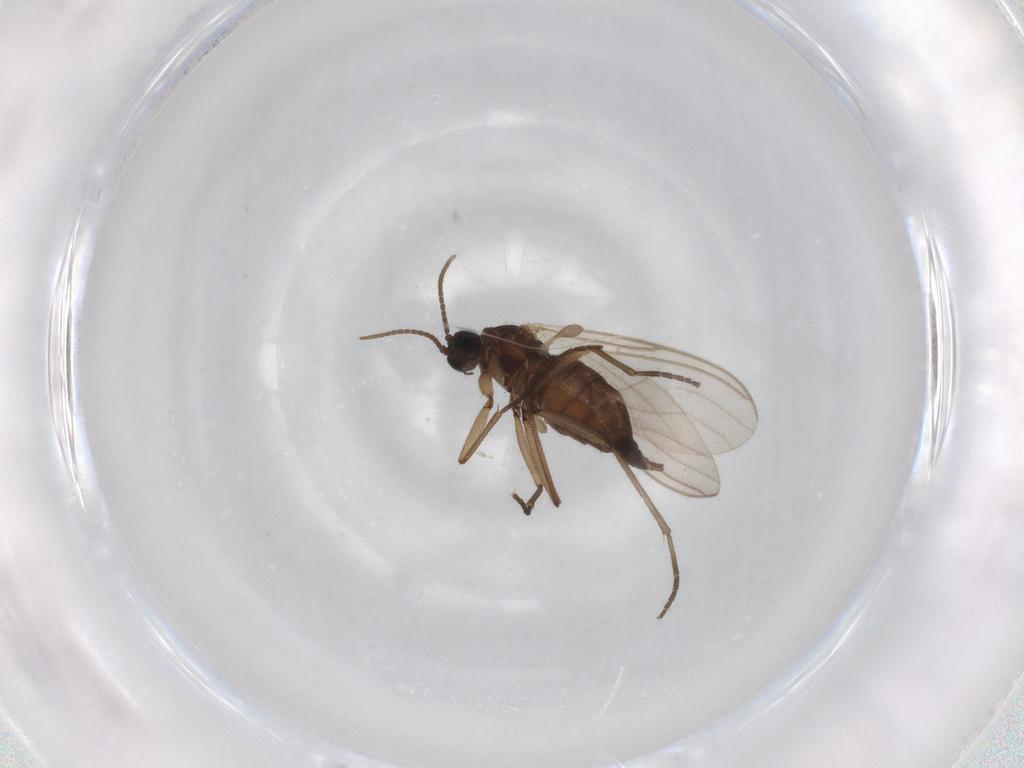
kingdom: Animalia
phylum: Arthropoda
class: Insecta
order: Diptera
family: Sciaridae
